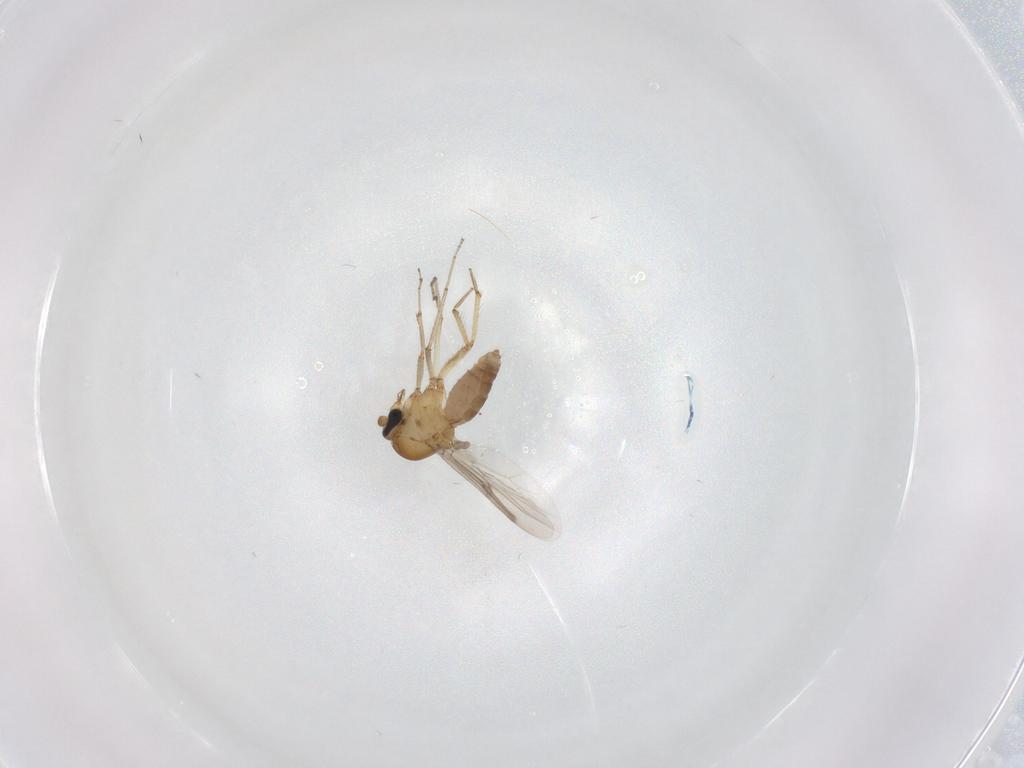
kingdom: Animalia
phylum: Arthropoda
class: Insecta
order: Diptera
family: Ceratopogonidae
